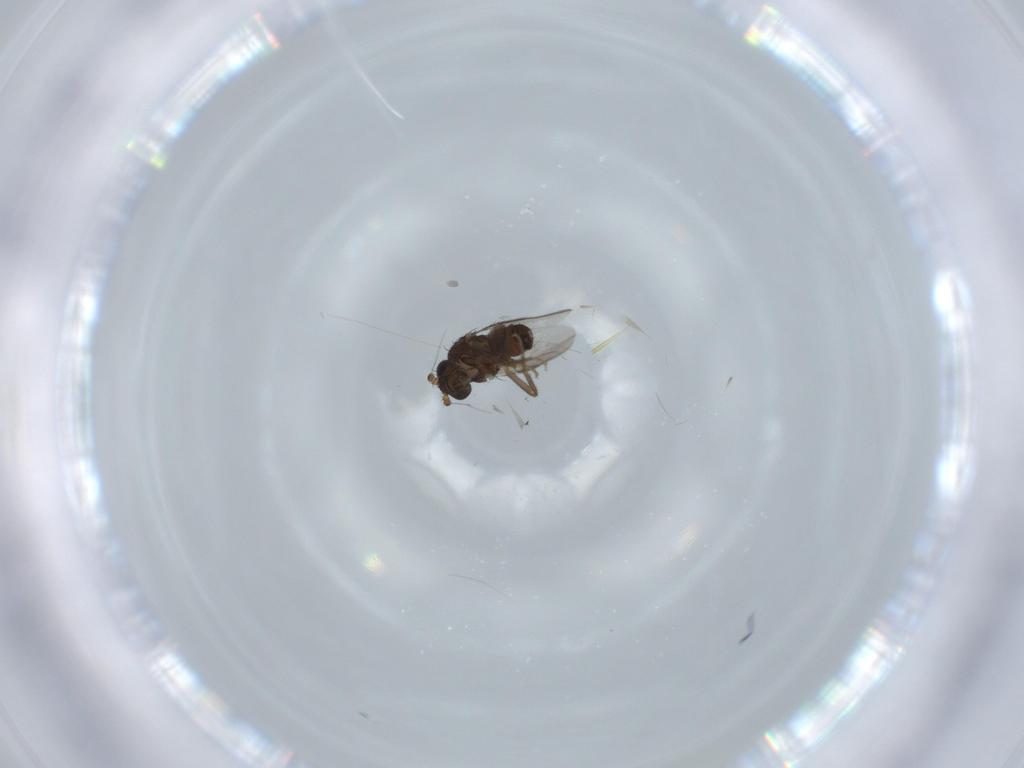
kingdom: Animalia
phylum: Arthropoda
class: Insecta
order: Diptera
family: Sphaeroceridae
